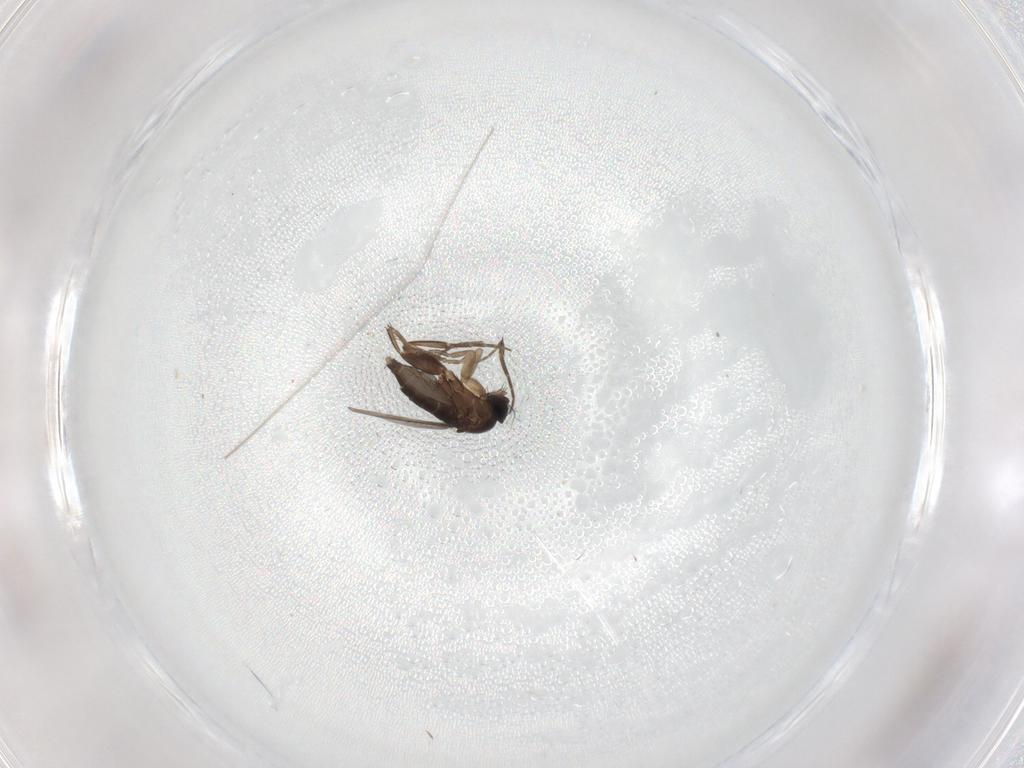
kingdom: Animalia
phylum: Arthropoda
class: Insecta
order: Diptera
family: Phoridae
